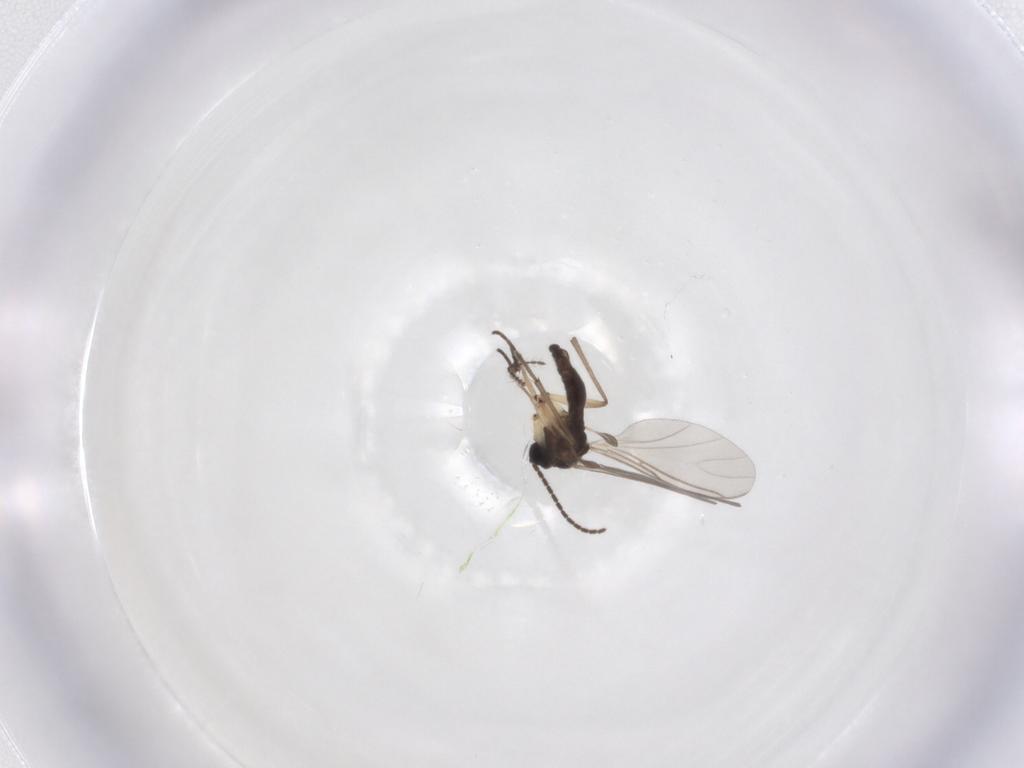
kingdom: Animalia
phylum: Arthropoda
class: Insecta
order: Diptera
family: Sciaridae
